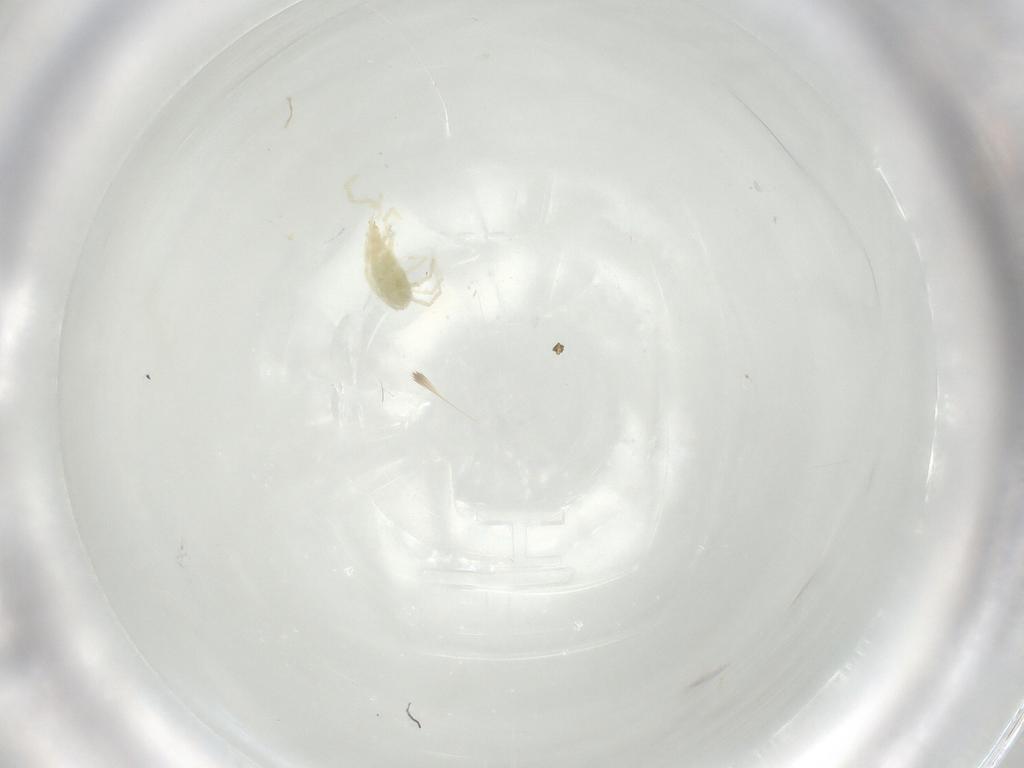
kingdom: Animalia
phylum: Arthropoda
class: Arachnida
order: Trombidiformes
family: Erythraeidae
